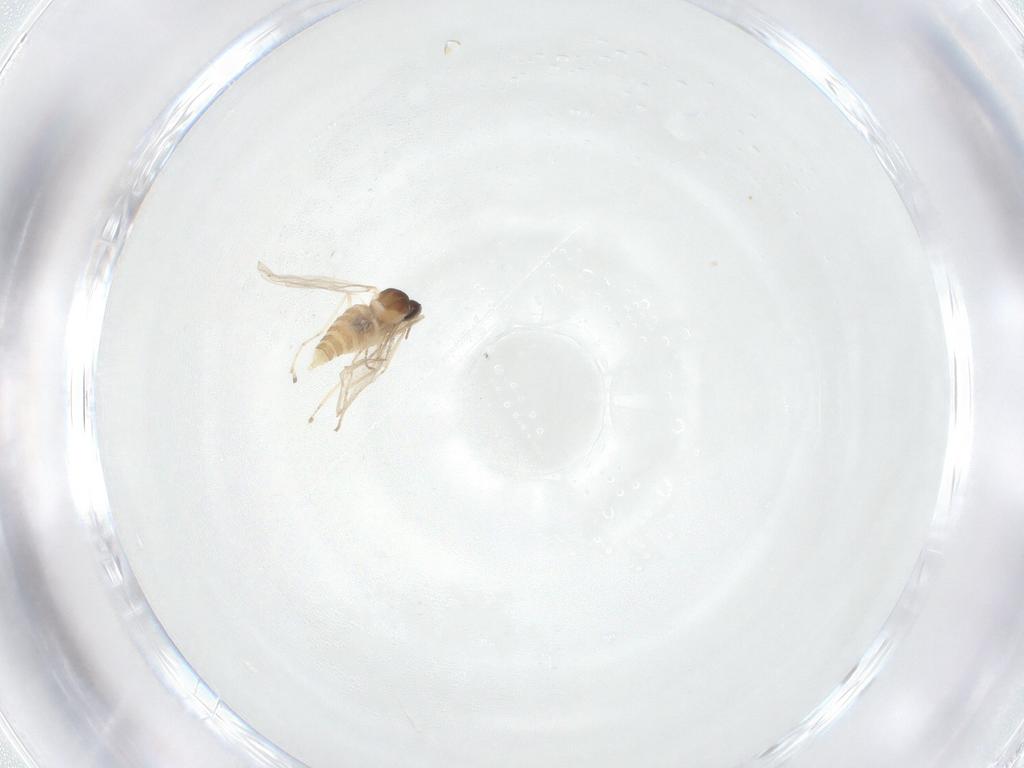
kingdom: Animalia
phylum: Arthropoda
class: Insecta
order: Diptera
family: Cecidomyiidae
